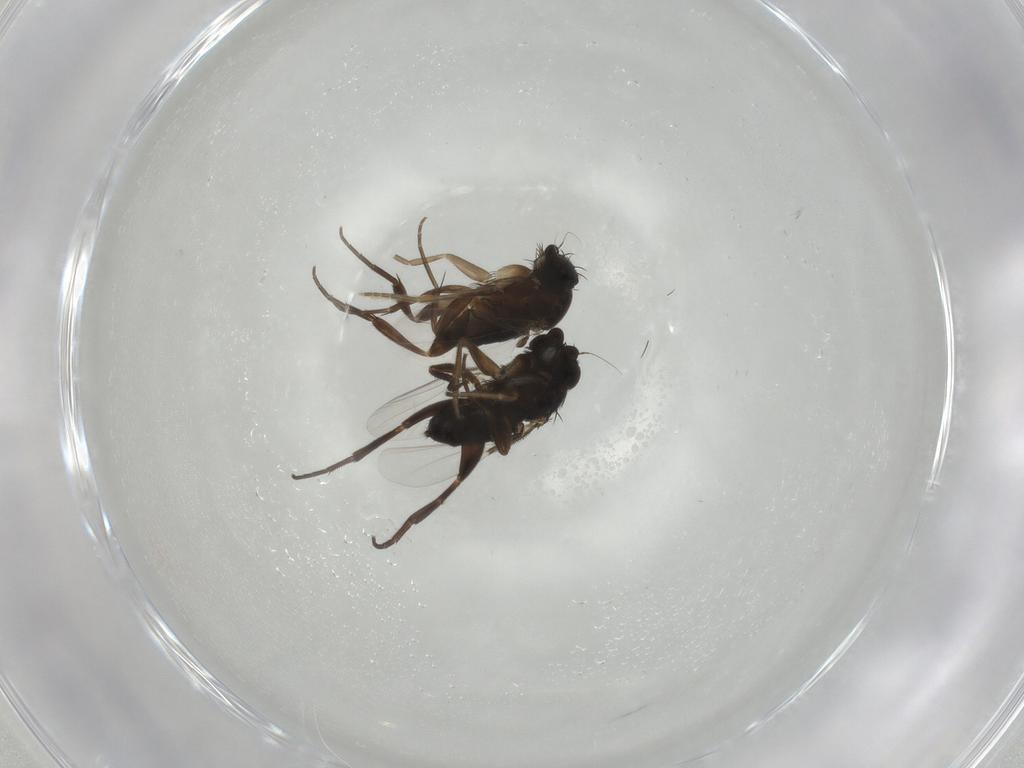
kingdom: Animalia
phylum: Arthropoda
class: Insecta
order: Diptera
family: Phoridae
